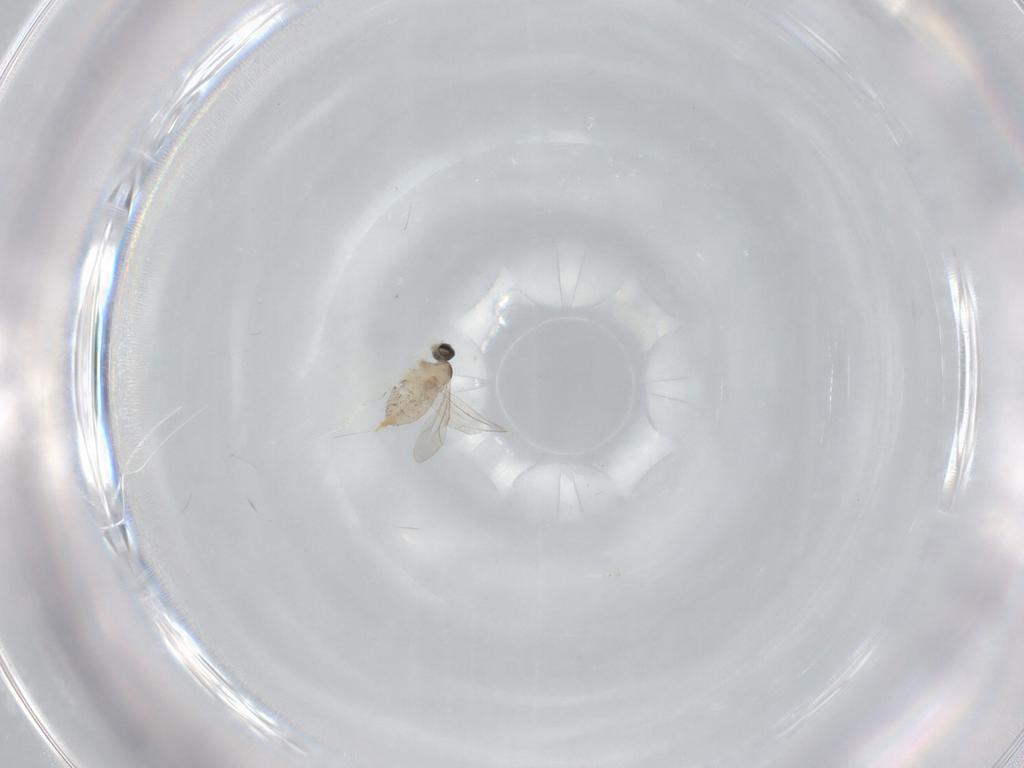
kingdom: Animalia
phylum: Arthropoda
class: Insecta
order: Diptera
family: Cecidomyiidae
